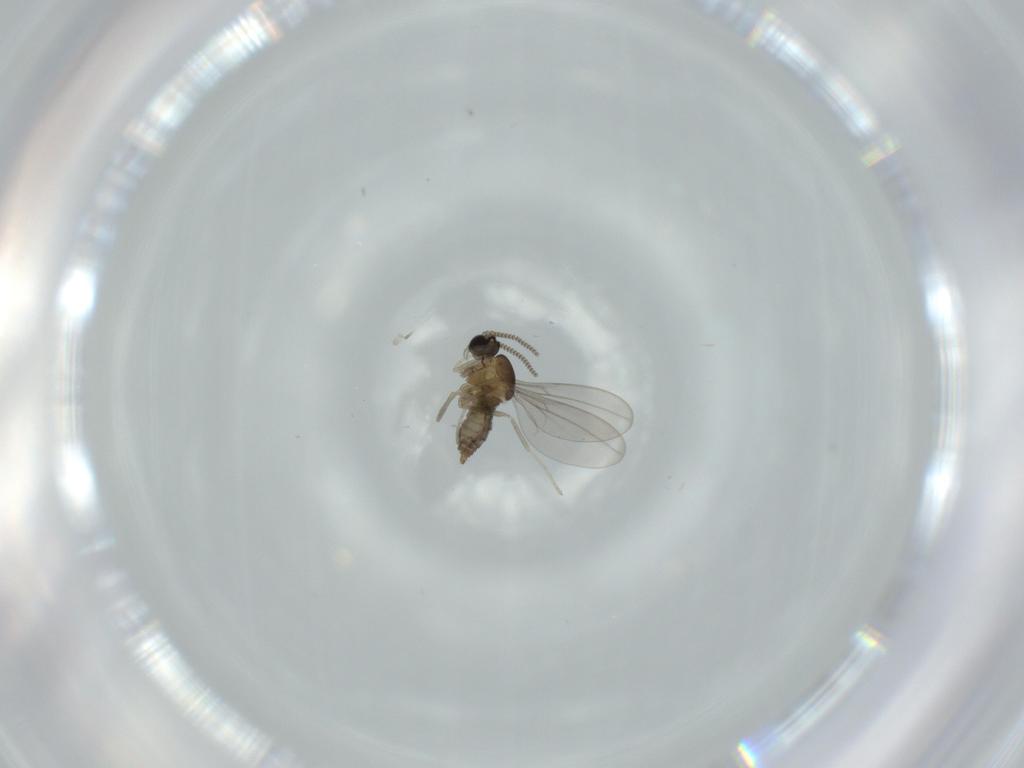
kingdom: Animalia
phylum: Arthropoda
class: Insecta
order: Diptera
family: Cecidomyiidae
